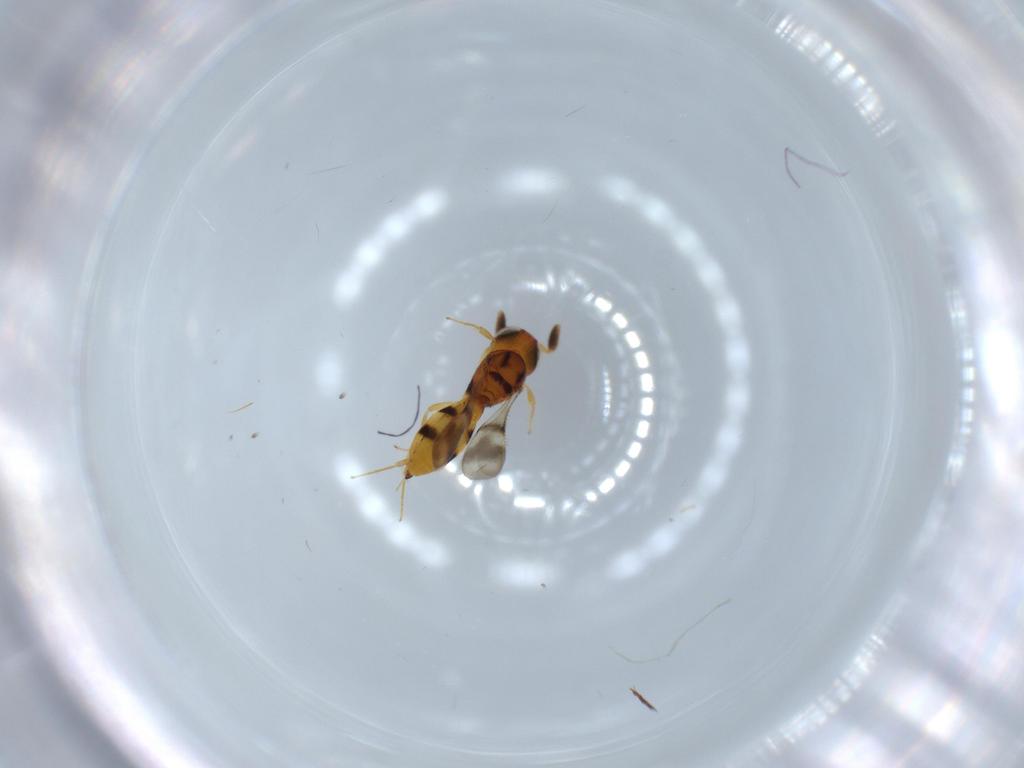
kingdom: Animalia
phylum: Arthropoda
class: Insecta
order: Hymenoptera
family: Scelionidae
